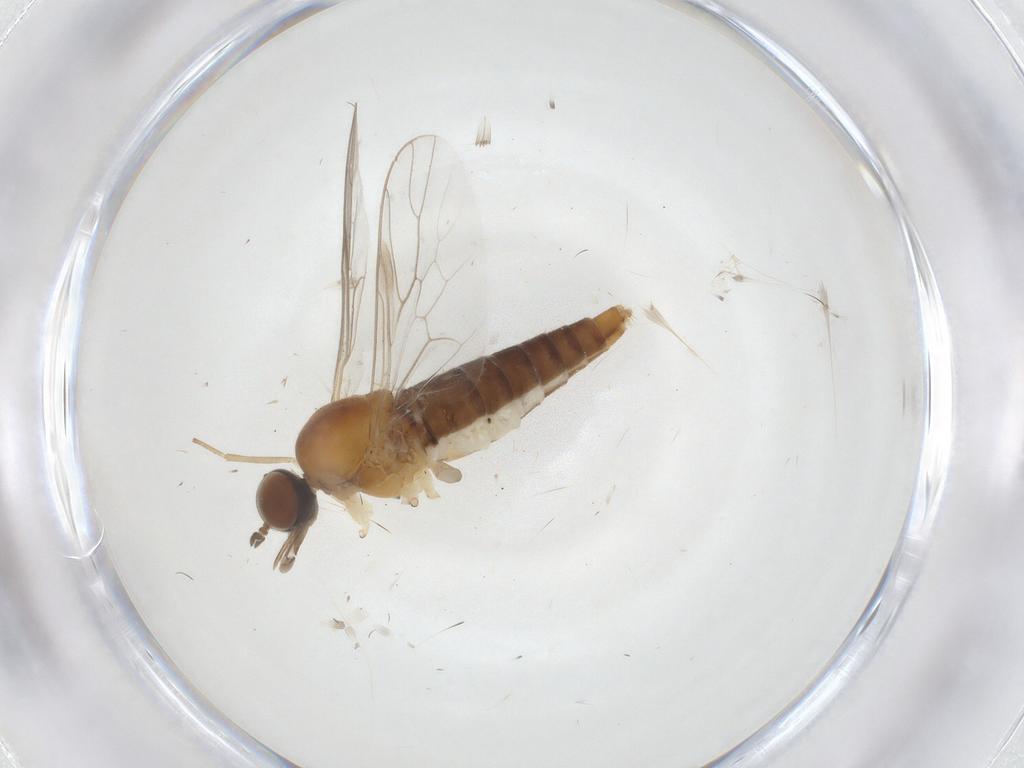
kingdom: Animalia
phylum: Arthropoda
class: Insecta
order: Diptera
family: Scenopinidae
